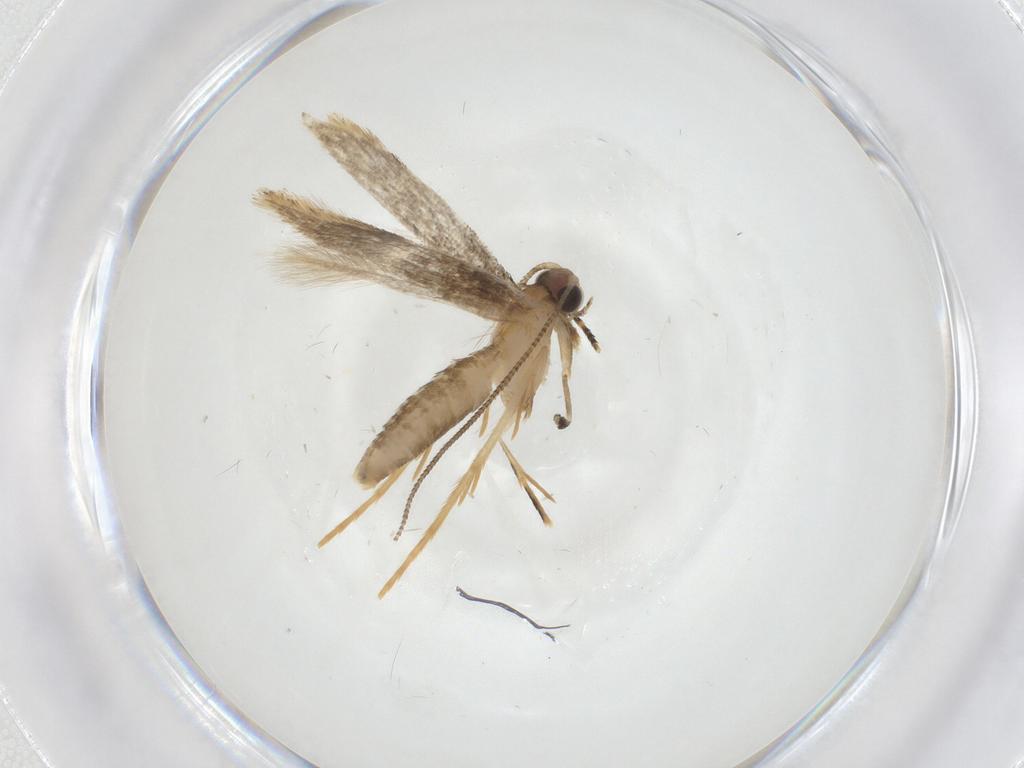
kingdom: Animalia
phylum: Arthropoda
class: Insecta
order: Lepidoptera
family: Tineidae
